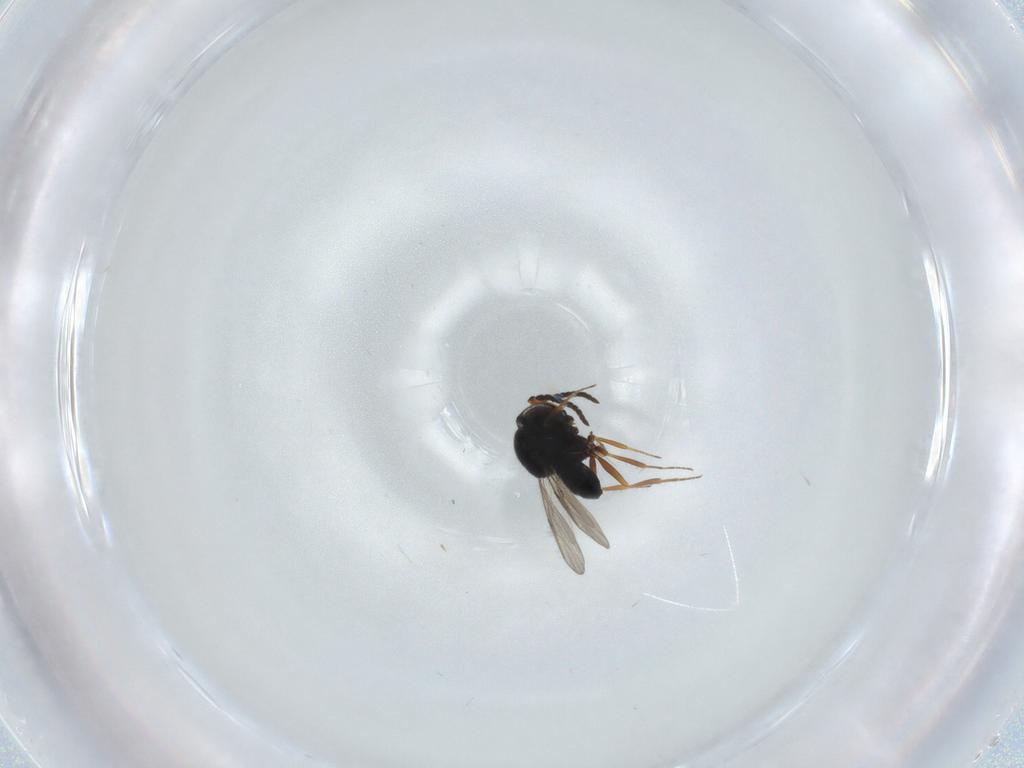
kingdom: Animalia
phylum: Arthropoda
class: Insecta
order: Hymenoptera
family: Scelionidae
